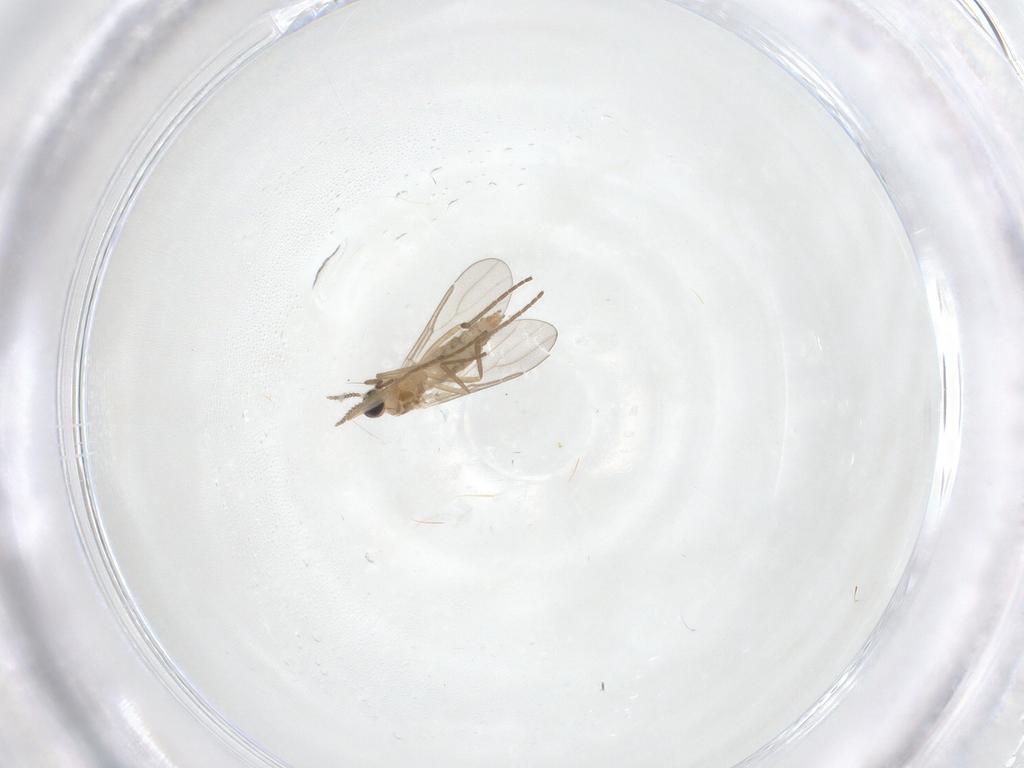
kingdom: Animalia
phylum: Arthropoda
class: Insecta
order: Diptera
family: Cecidomyiidae
